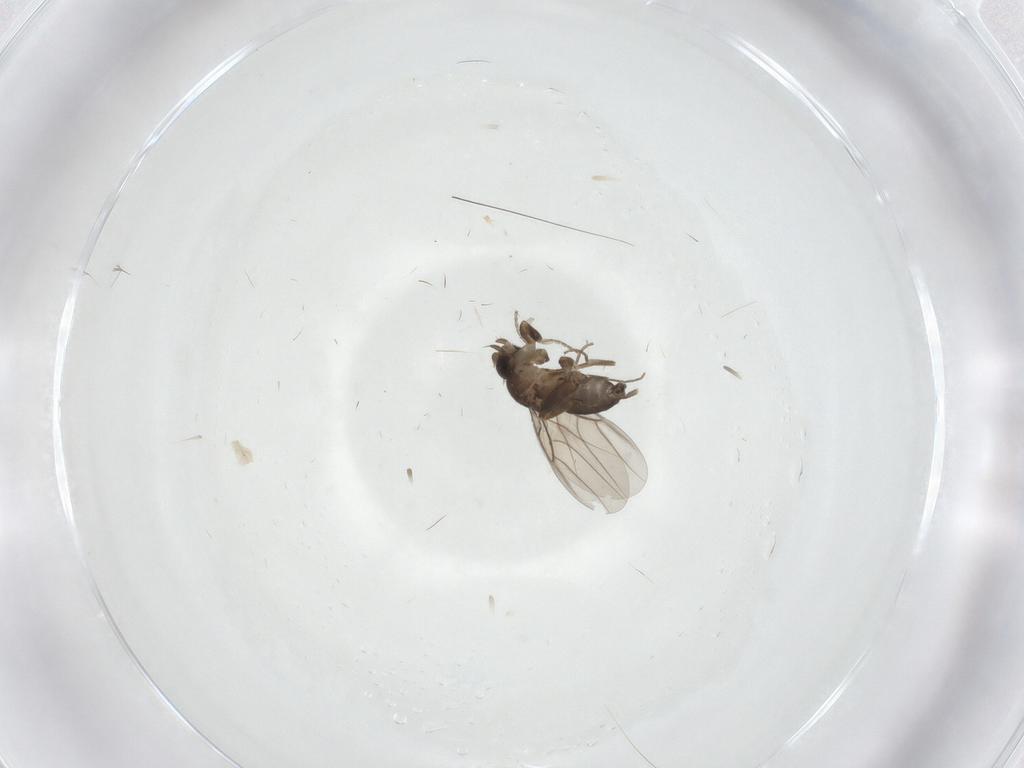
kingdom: Animalia
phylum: Arthropoda
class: Insecta
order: Diptera
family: Phoridae
